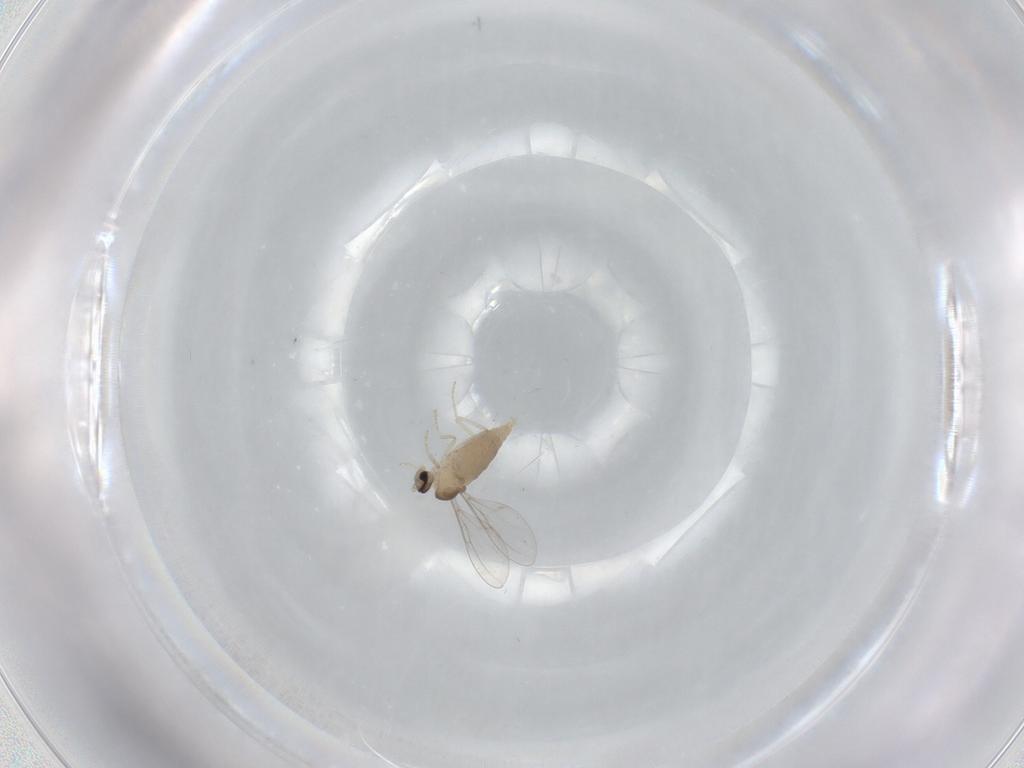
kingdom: Animalia
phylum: Arthropoda
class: Insecta
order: Diptera
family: Cecidomyiidae
